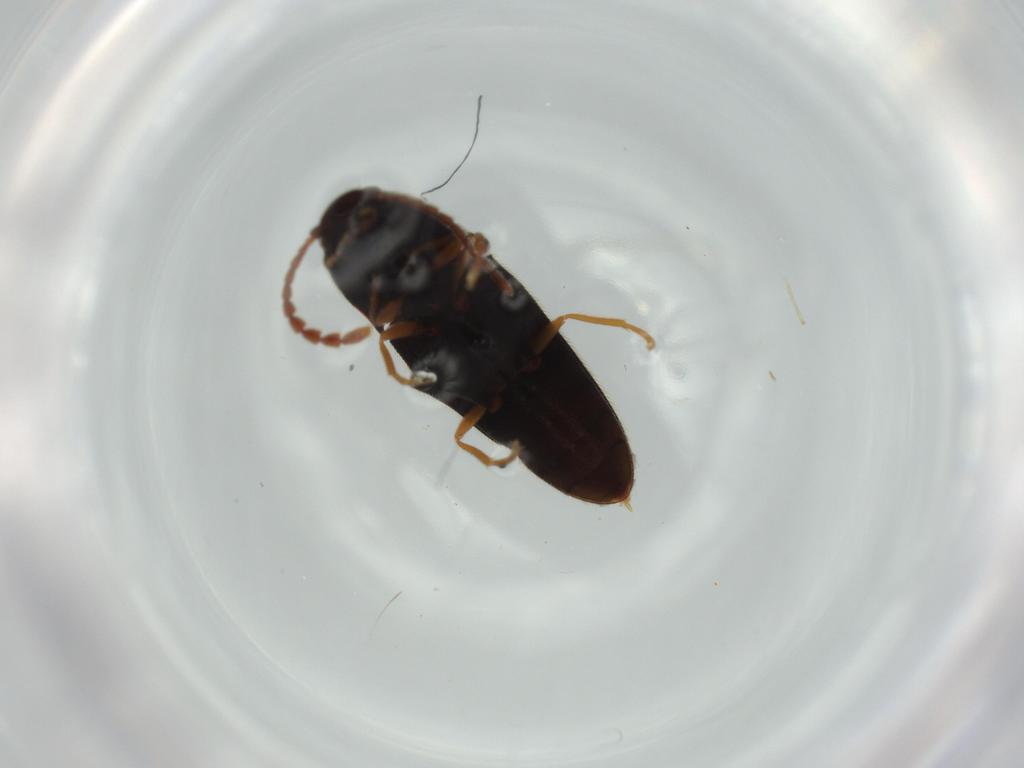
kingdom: Animalia
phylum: Arthropoda
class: Insecta
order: Coleoptera
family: Elateridae
